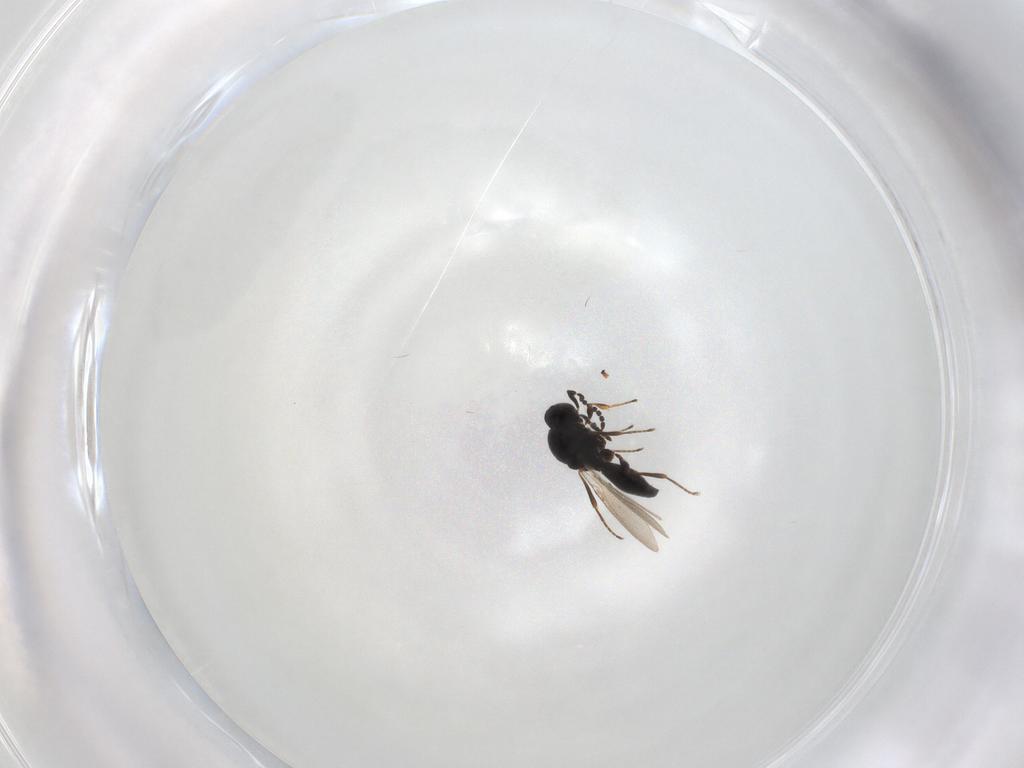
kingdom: Animalia
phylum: Arthropoda
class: Insecta
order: Hymenoptera
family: Platygastridae
